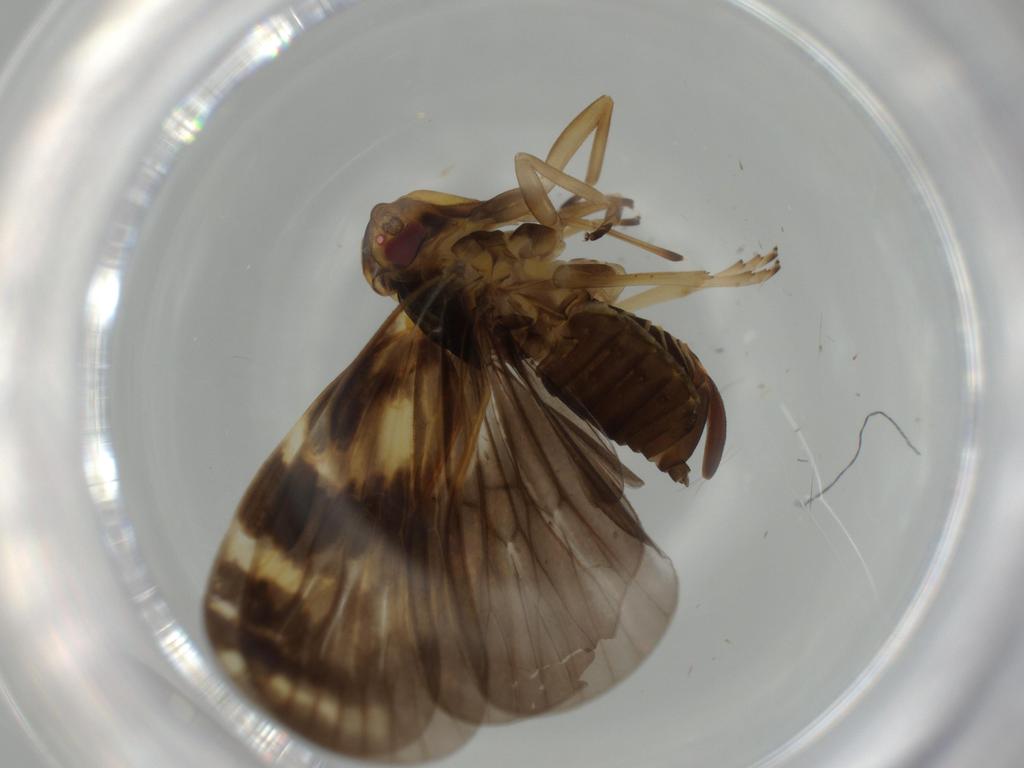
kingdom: Animalia
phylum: Arthropoda
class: Insecta
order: Hemiptera
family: Cixiidae
